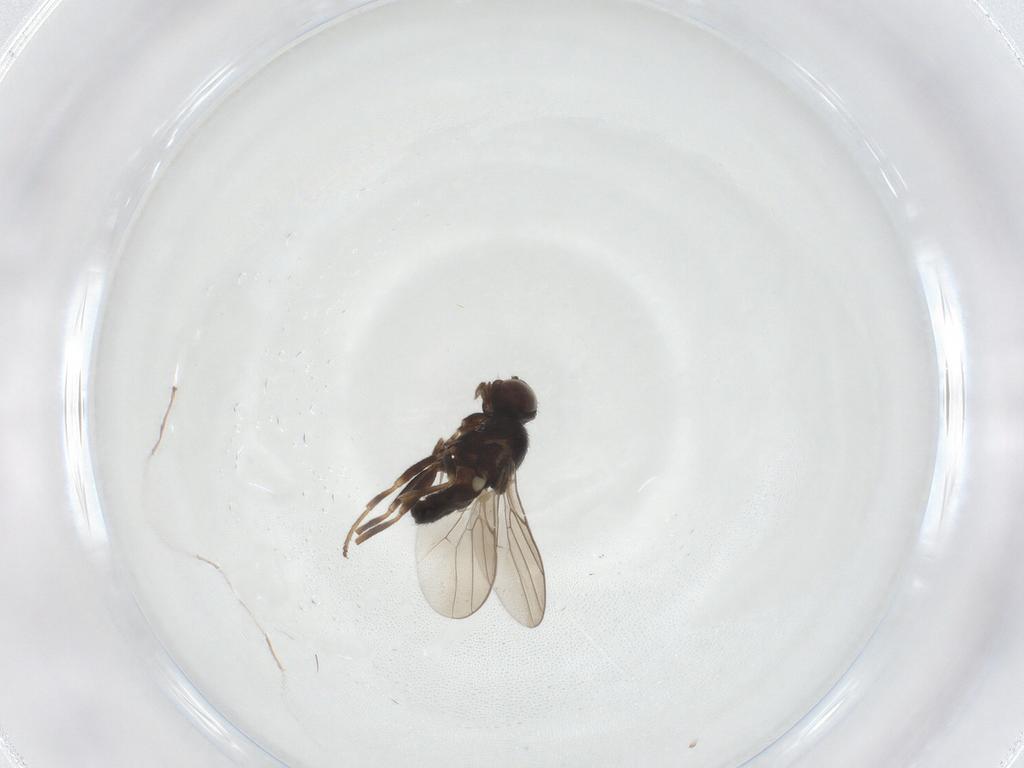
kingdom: Animalia
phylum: Arthropoda
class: Insecta
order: Diptera
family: Chloropidae
